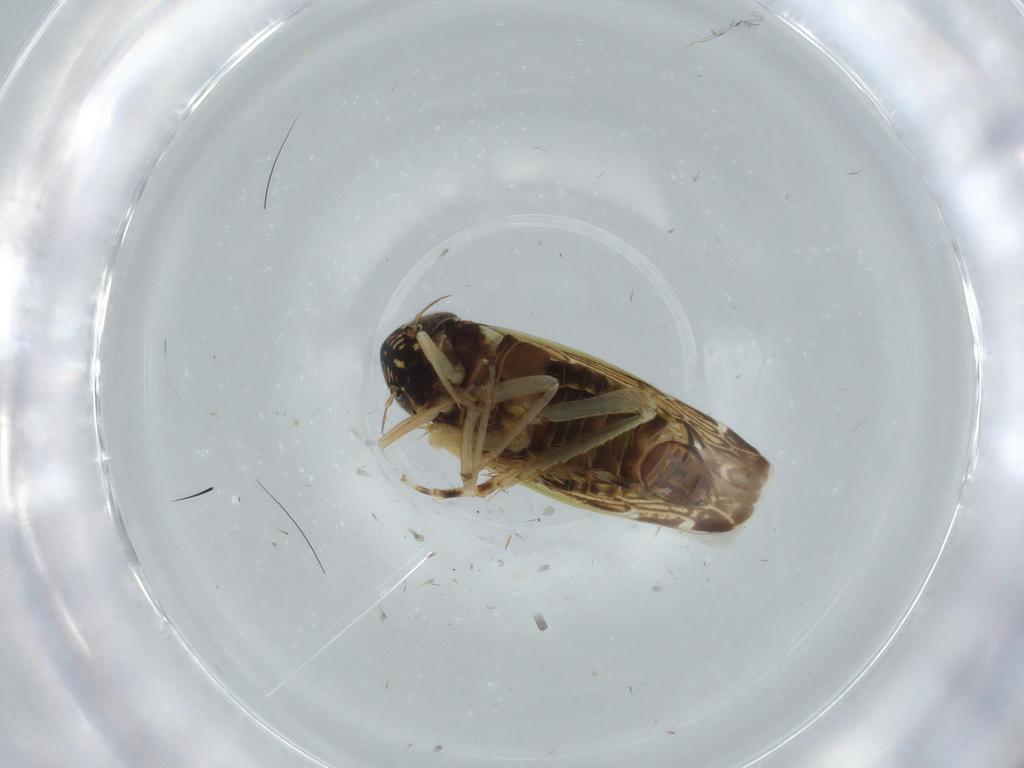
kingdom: Animalia
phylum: Arthropoda
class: Insecta
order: Hemiptera
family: Cicadellidae
